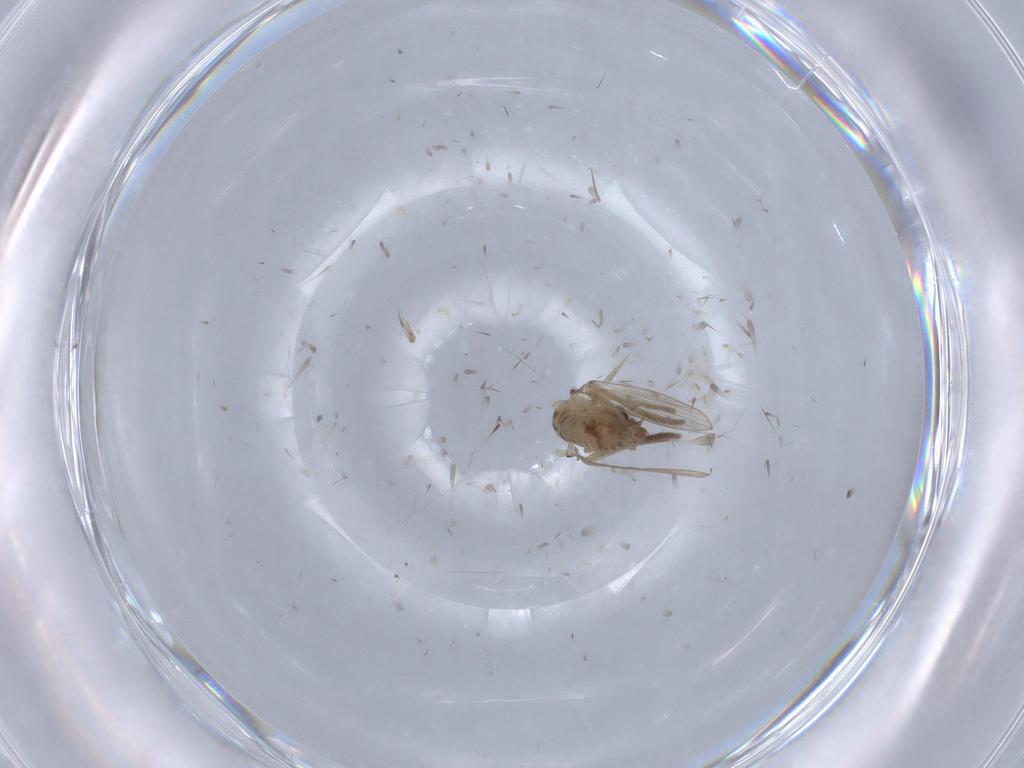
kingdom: Animalia
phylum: Arthropoda
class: Insecta
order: Diptera
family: Psychodidae
